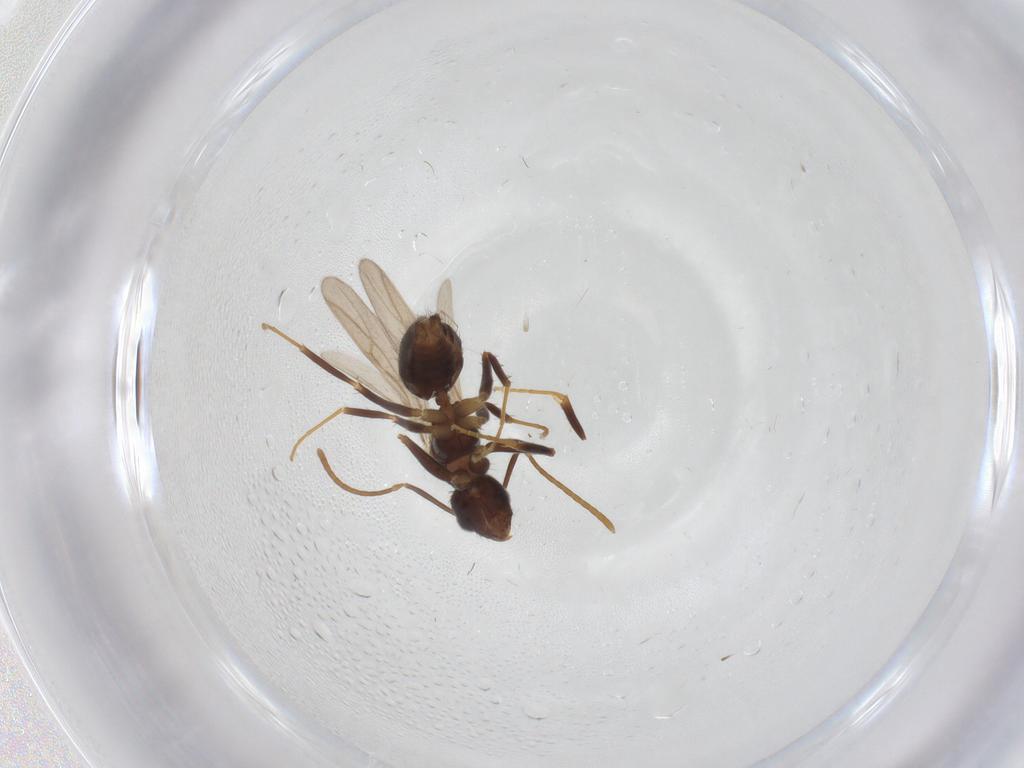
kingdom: Animalia
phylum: Arthropoda
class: Insecta
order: Hymenoptera
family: Formicidae
